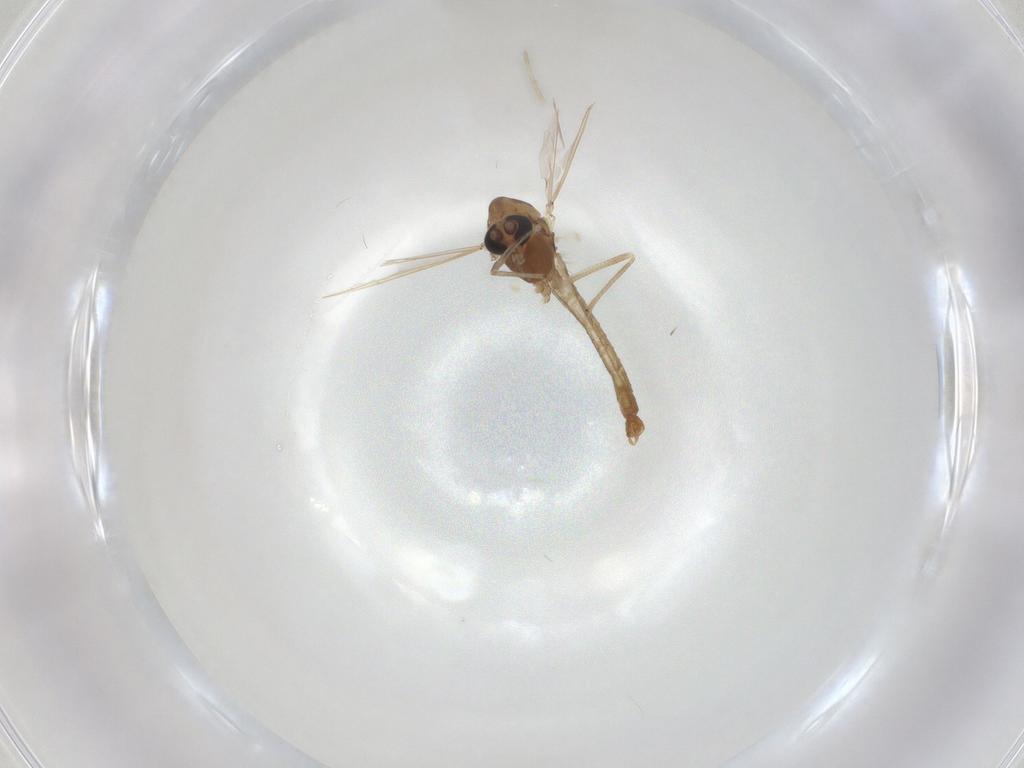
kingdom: Animalia
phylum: Arthropoda
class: Insecta
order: Diptera
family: Chironomidae
